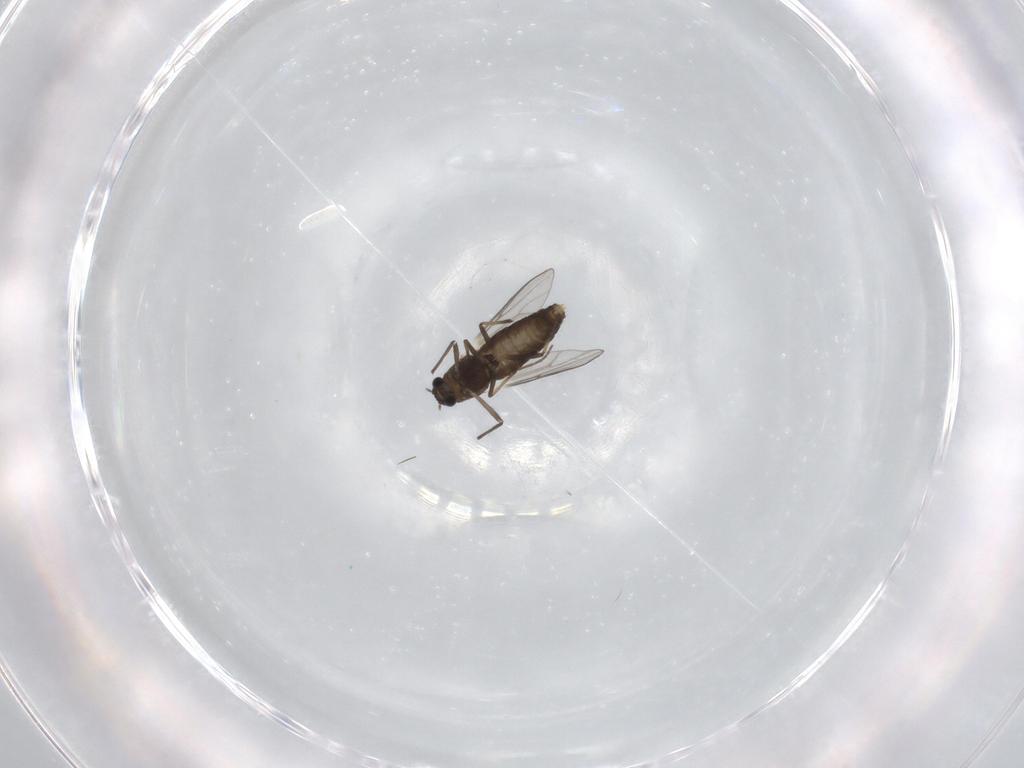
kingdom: Animalia
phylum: Arthropoda
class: Insecta
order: Diptera
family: Chironomidae
